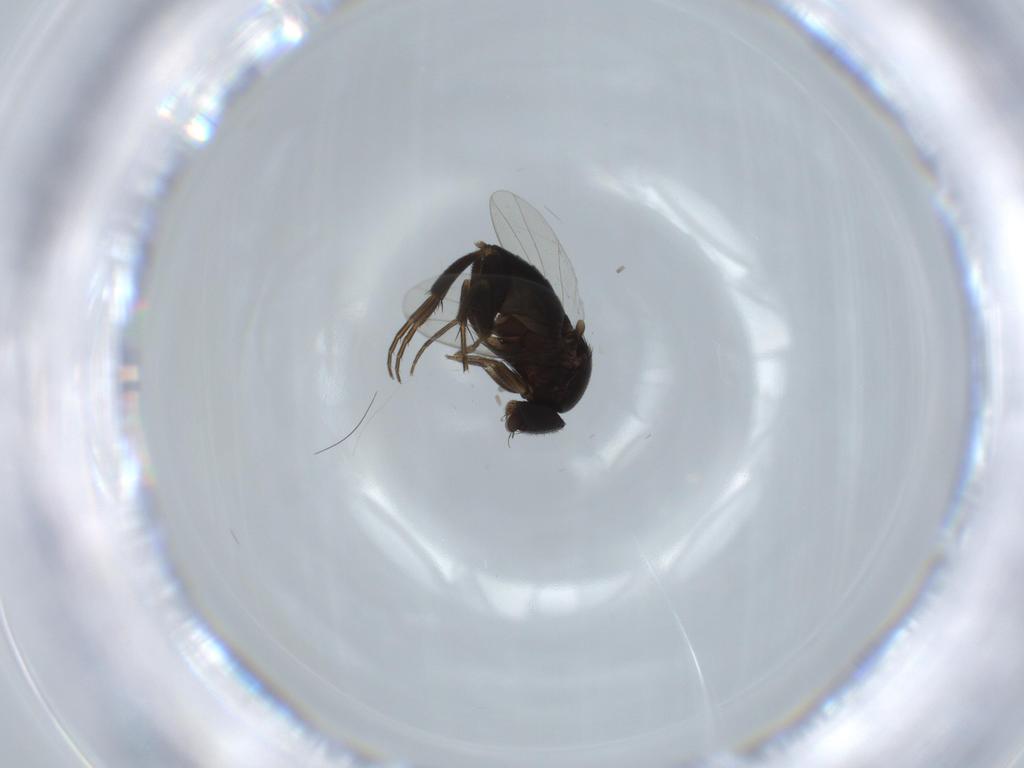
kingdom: Animalia
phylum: Arthropoda
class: Insecta
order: Diptera
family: Phoridae
